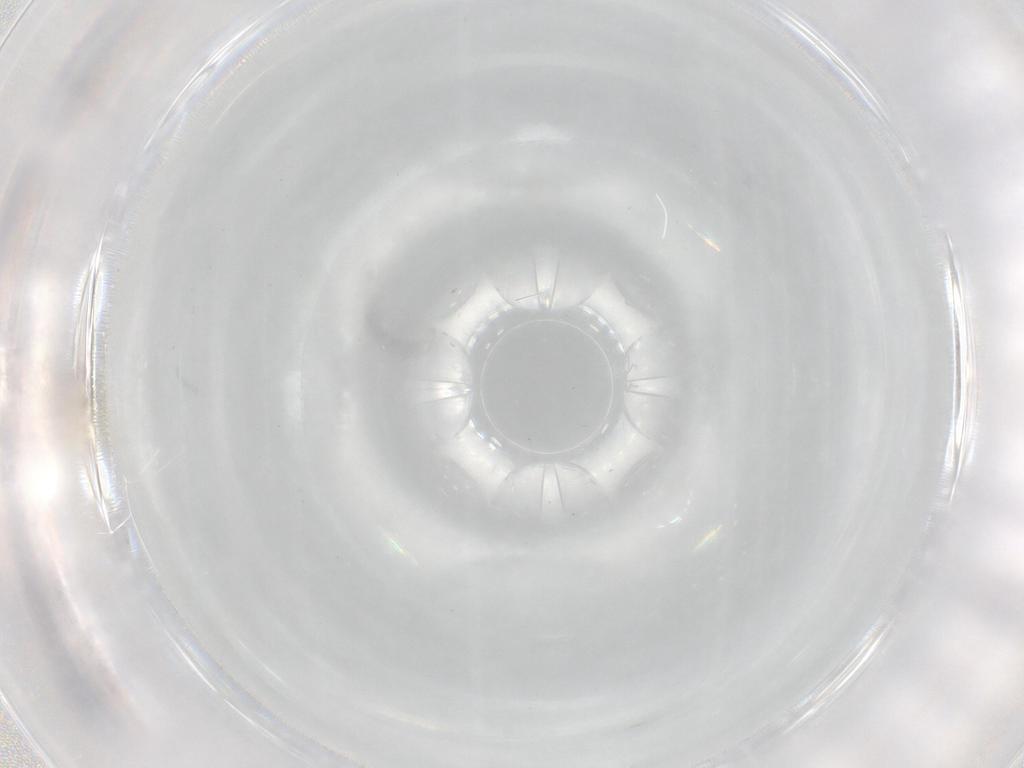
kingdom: Animalia
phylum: Arthropoda
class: Insecta
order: Diptera
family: Cecidomyiidae
